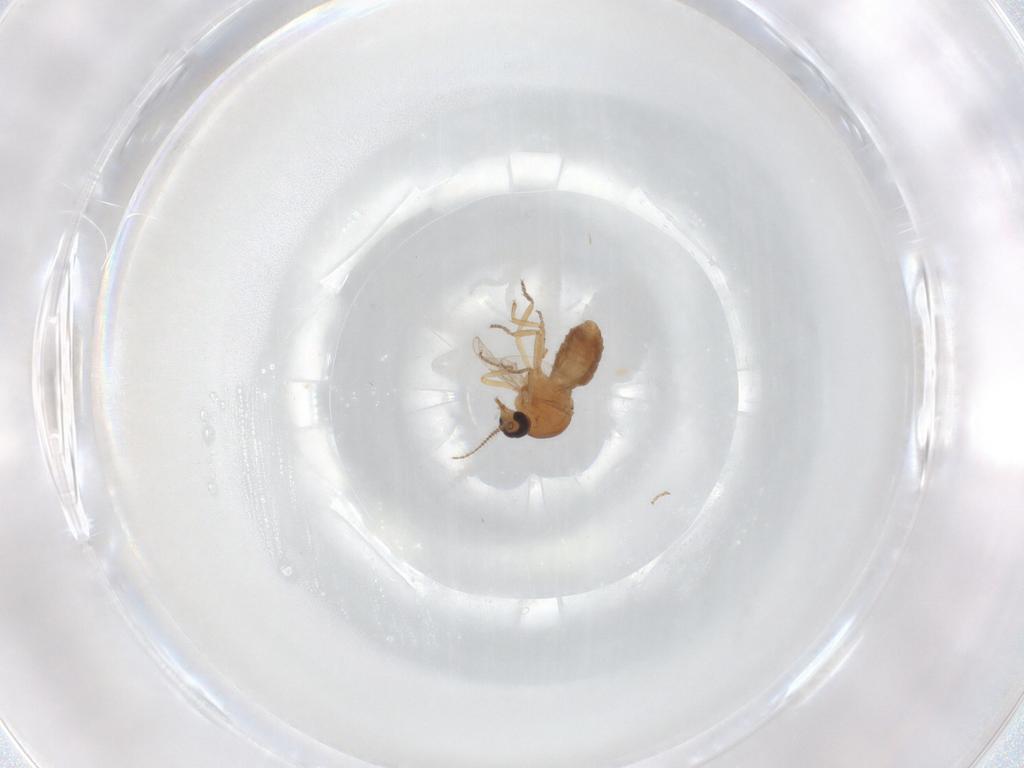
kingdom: Animalia
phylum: Arthropoda
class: Insecta
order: Diptera
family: Ceratopogonidae
